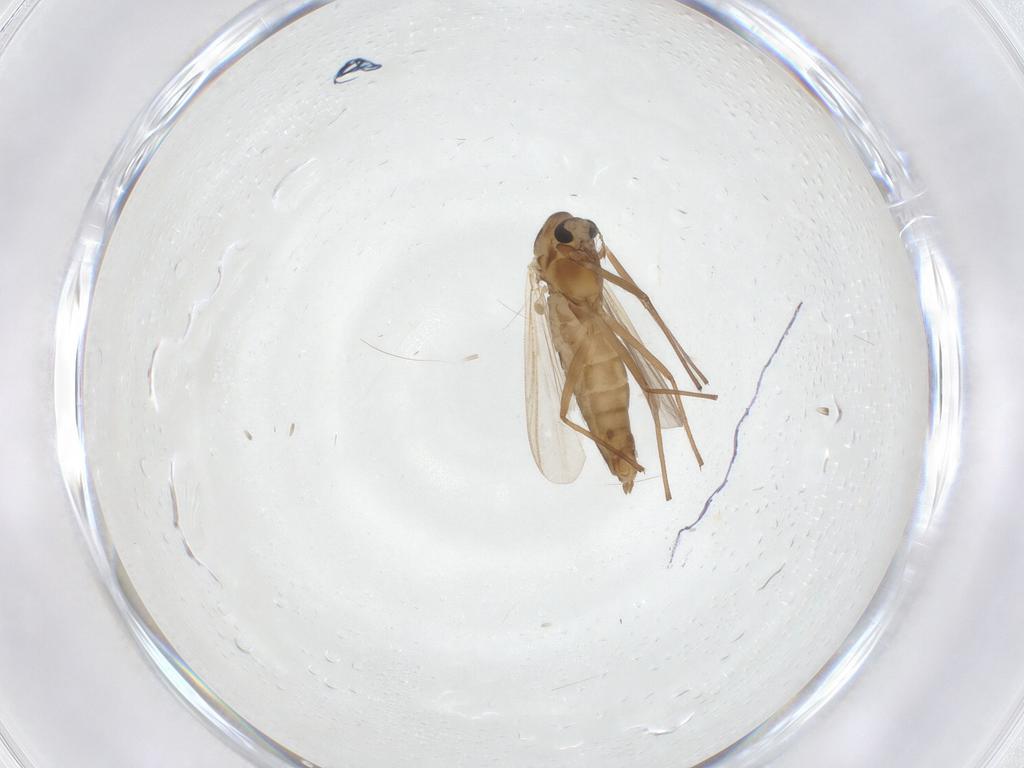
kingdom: Animalia
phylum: Arthropoda
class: Insecta
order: Diptera
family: Chironomidae
